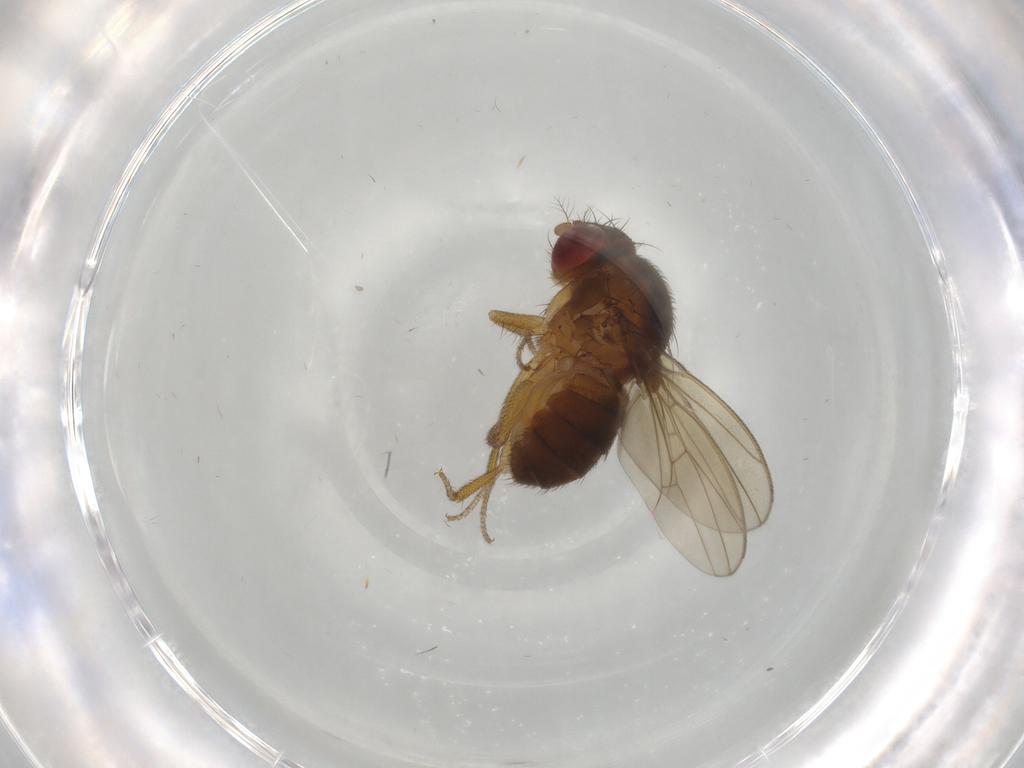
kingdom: Animalia
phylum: Arthropoda
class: Insecta
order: Diptera
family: Drosophilidae
